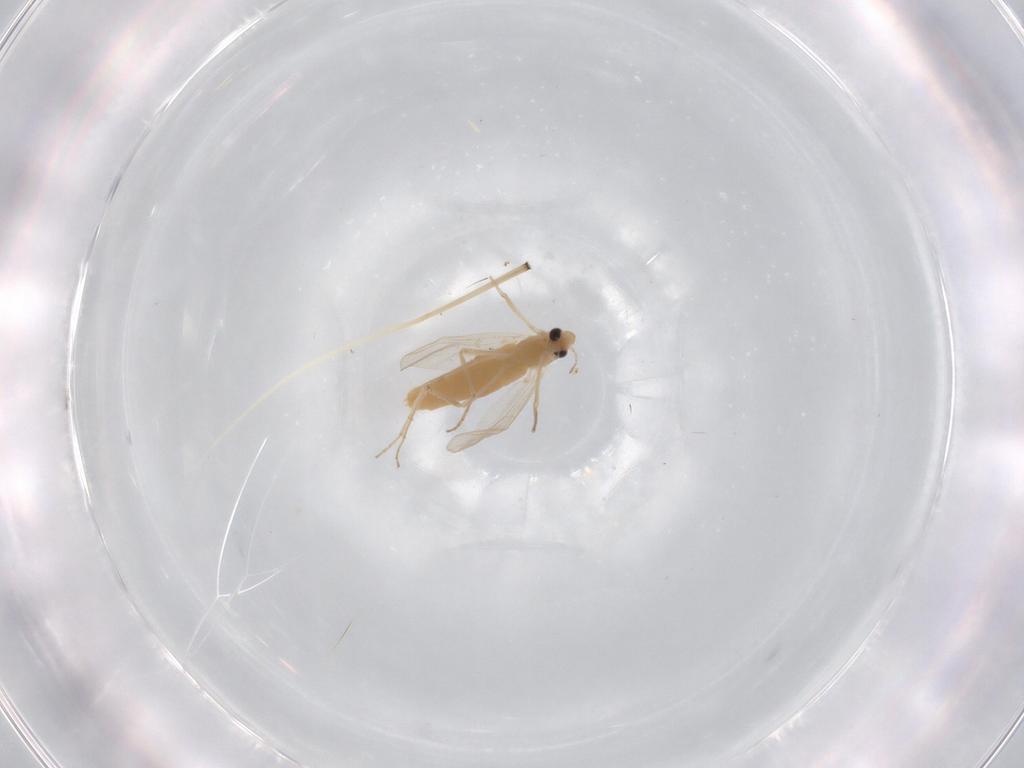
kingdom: Animalia
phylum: Arthropoda
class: Insecta
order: Diptera
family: Chironomidae
